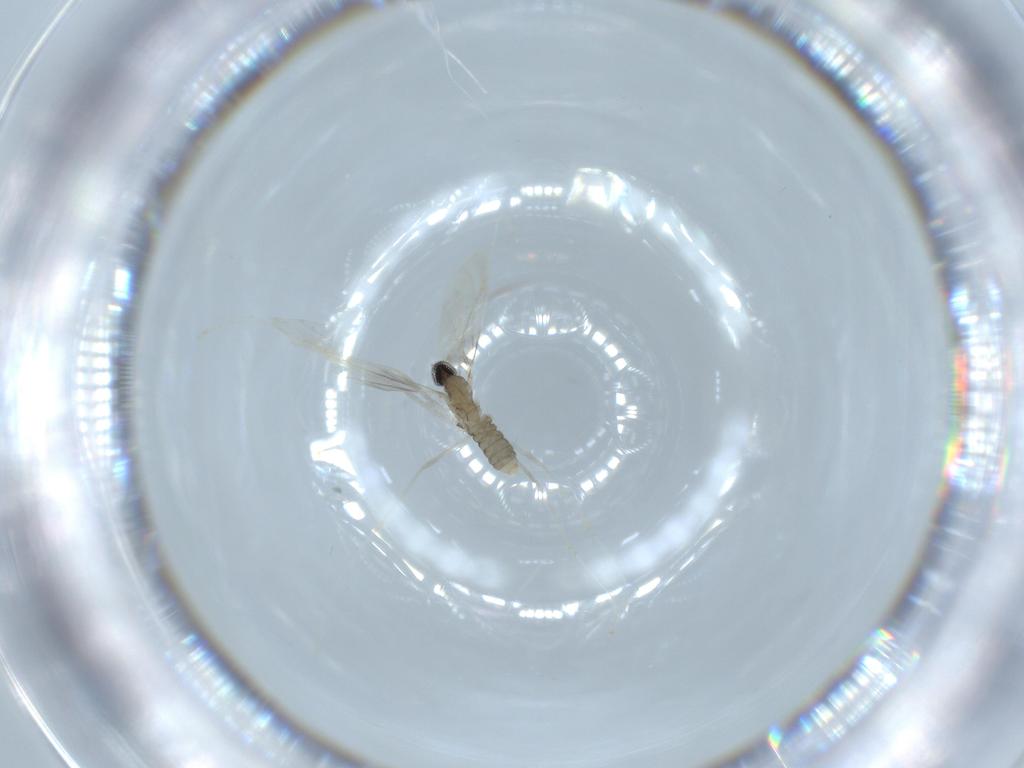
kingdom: Animalia
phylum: Arthropoda
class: Insecta
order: Diptera
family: Cecidomyiidae
